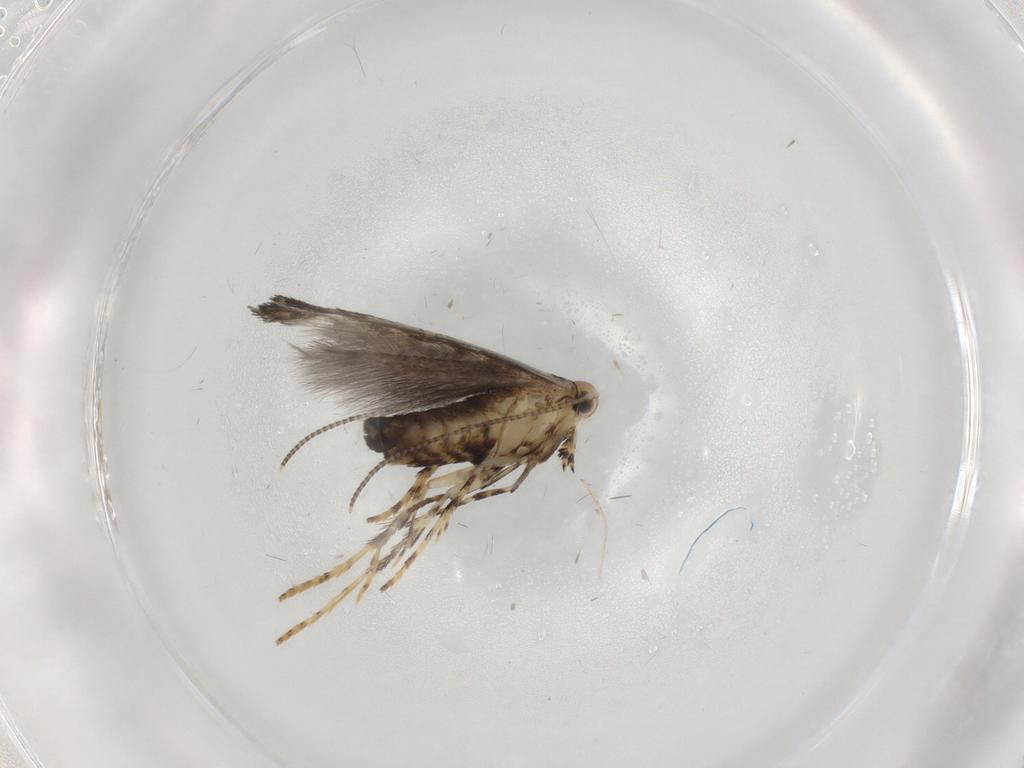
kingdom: Animalia
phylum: Arthropoda
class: Insecta
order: Lepidoptera
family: Gracillariidae
